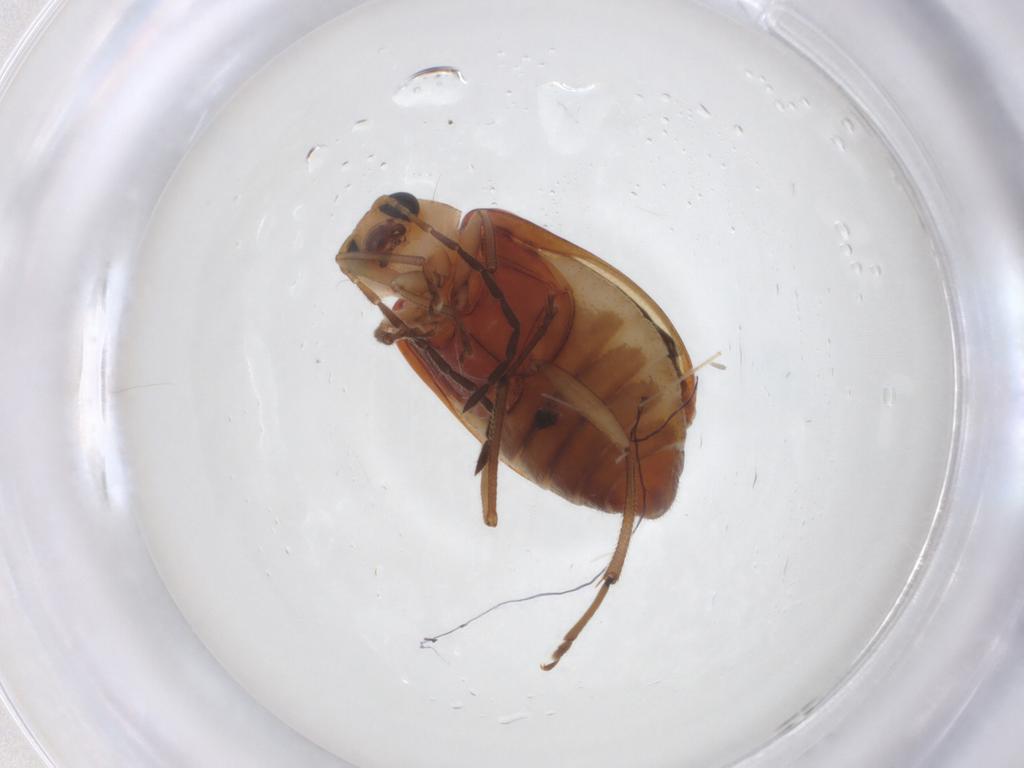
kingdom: Animalia
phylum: Arthropoda
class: Insecta
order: Coleoptera
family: Chrysomelidae
